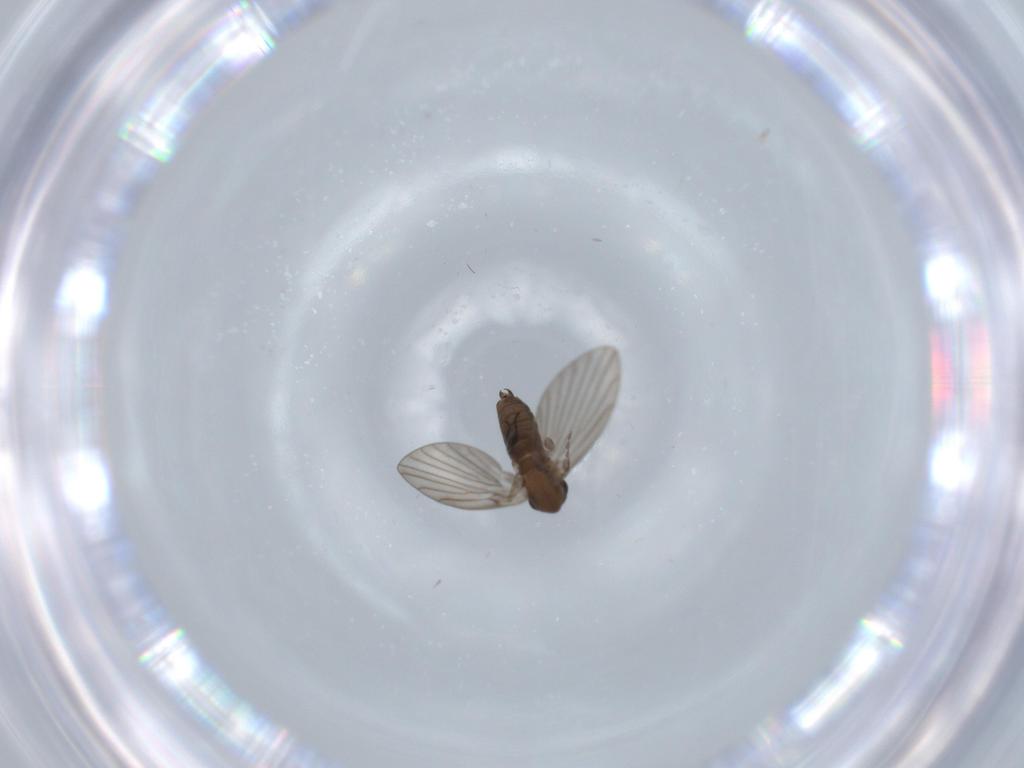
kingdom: Animalia
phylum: Arthropoda
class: Insecta
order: Diptera
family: Psychodidae
